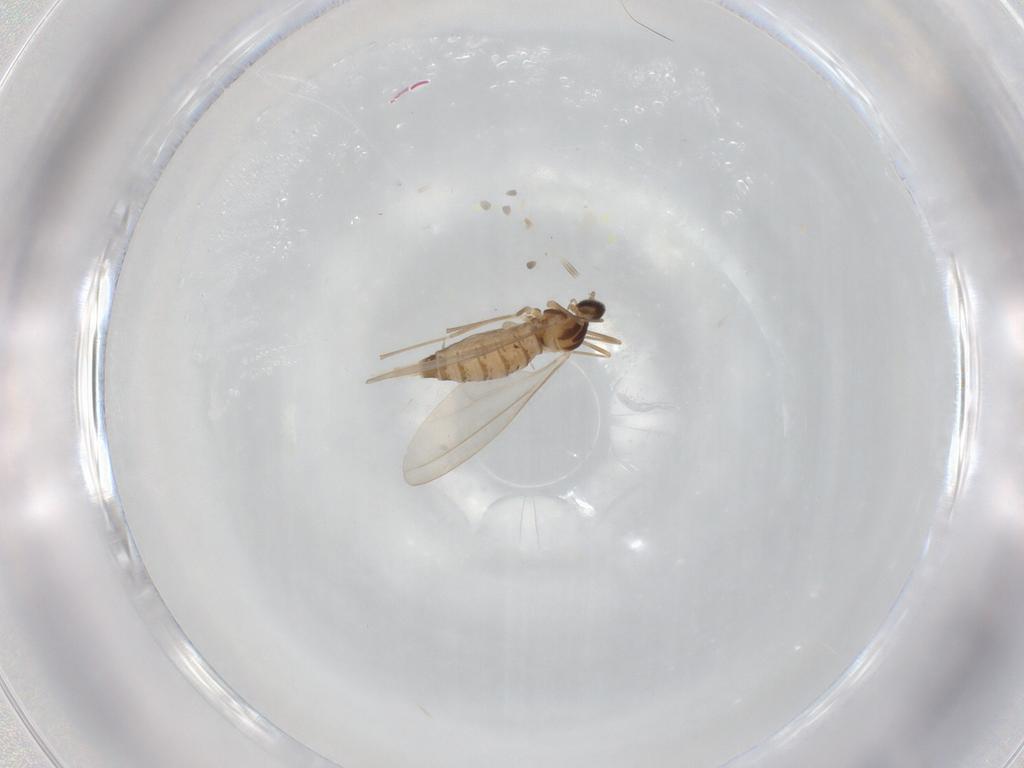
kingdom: Animalia
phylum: Arthropoda
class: Insecta
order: Diptera
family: Cecidomyiidae
